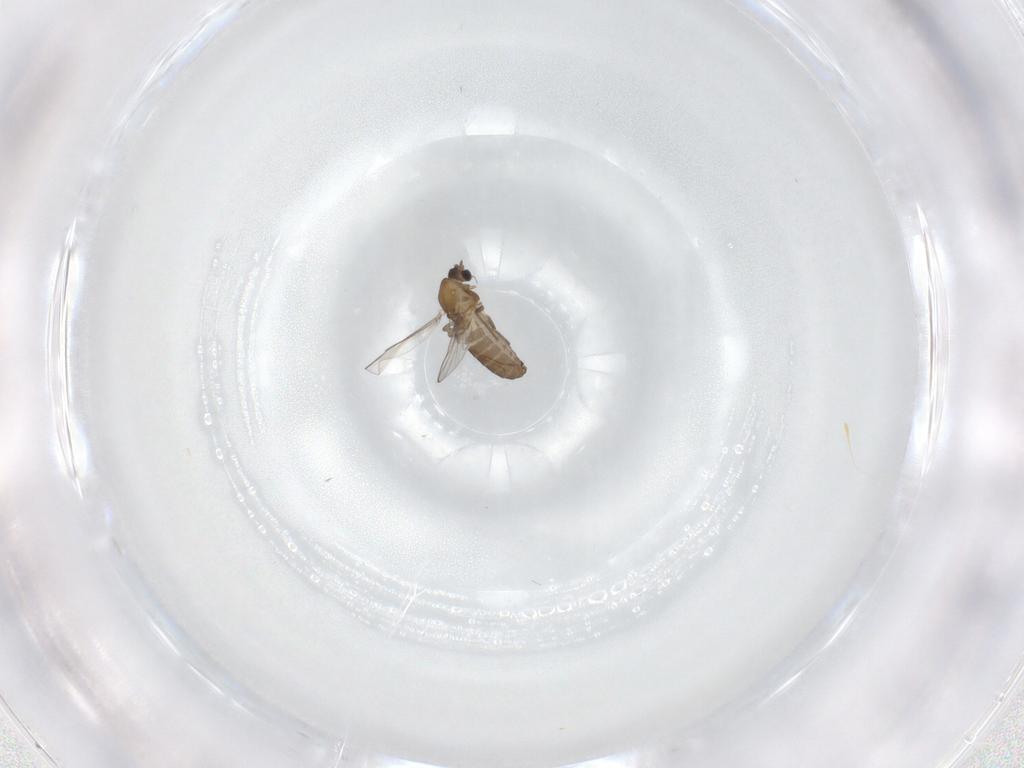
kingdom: Animalia
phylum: Arthropoda
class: Insecta
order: Diptera
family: Chironomidae
